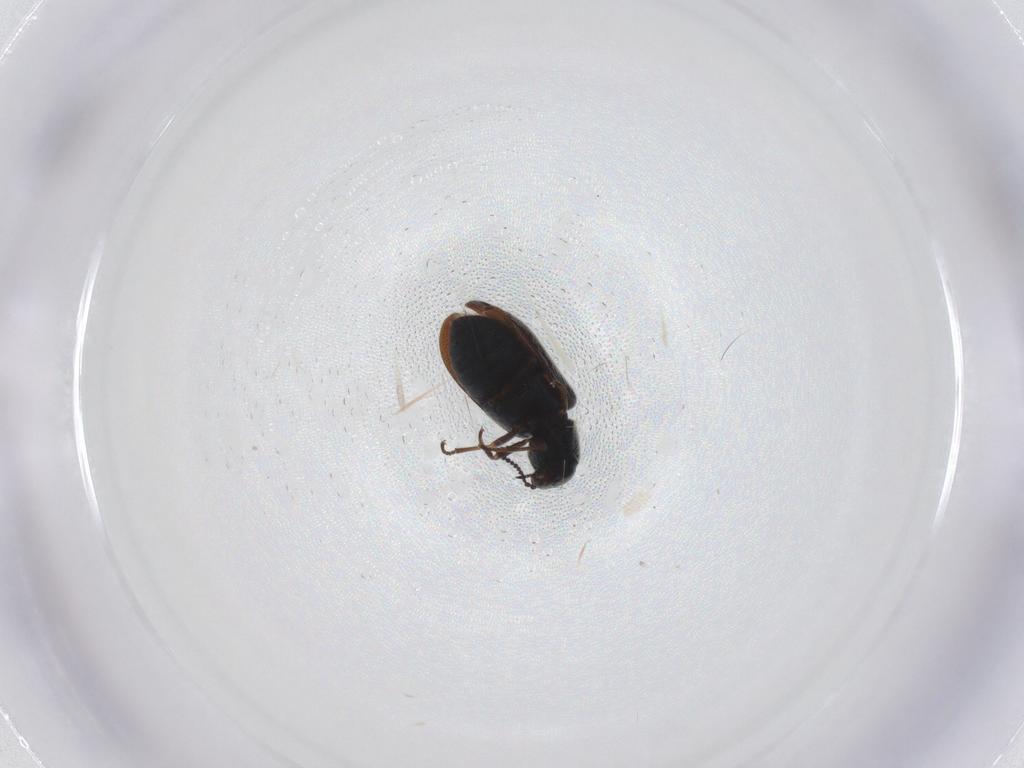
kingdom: Animalia
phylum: Arthropoda
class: Insecta
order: Coleoptera
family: Melyridae
